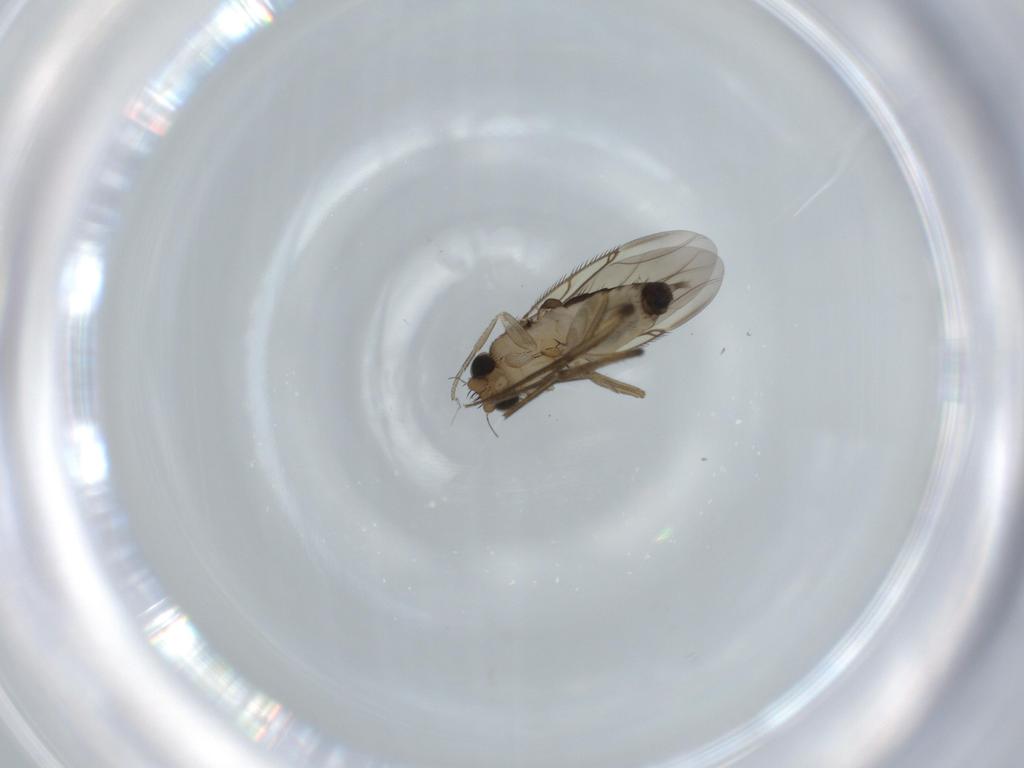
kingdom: Animalia
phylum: Arthropoda
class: Insecta
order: Diptera
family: Phoridae
